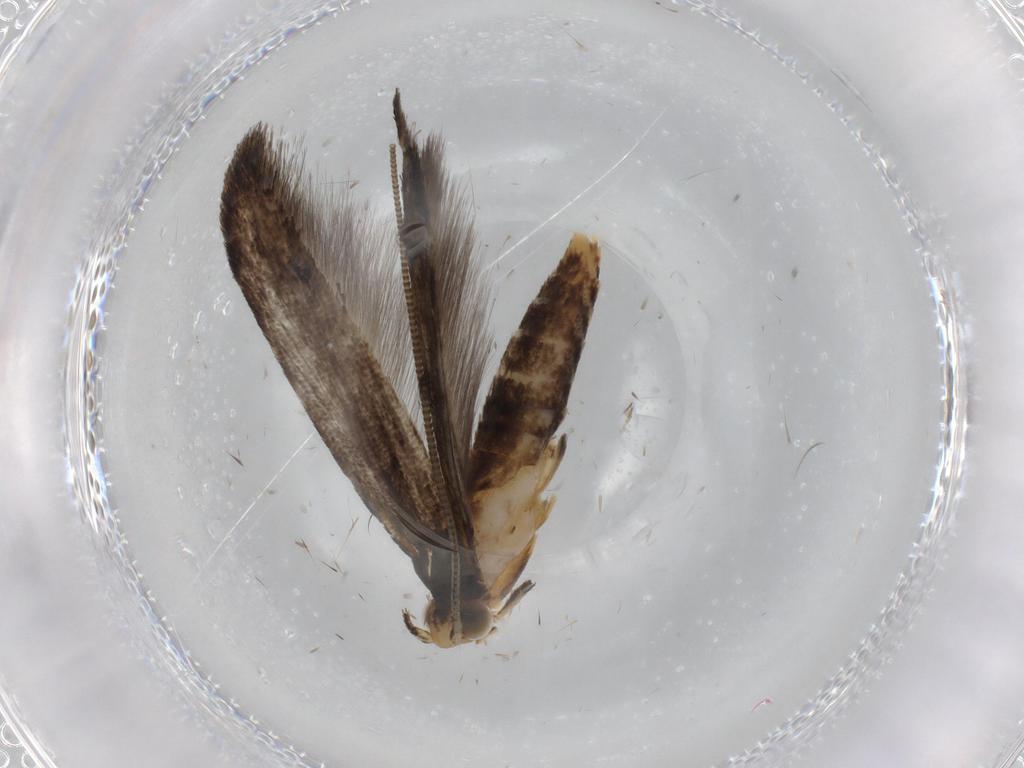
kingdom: Animalia
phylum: Arthropoda
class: Insecta
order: Lepidoptera
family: Tineidae
